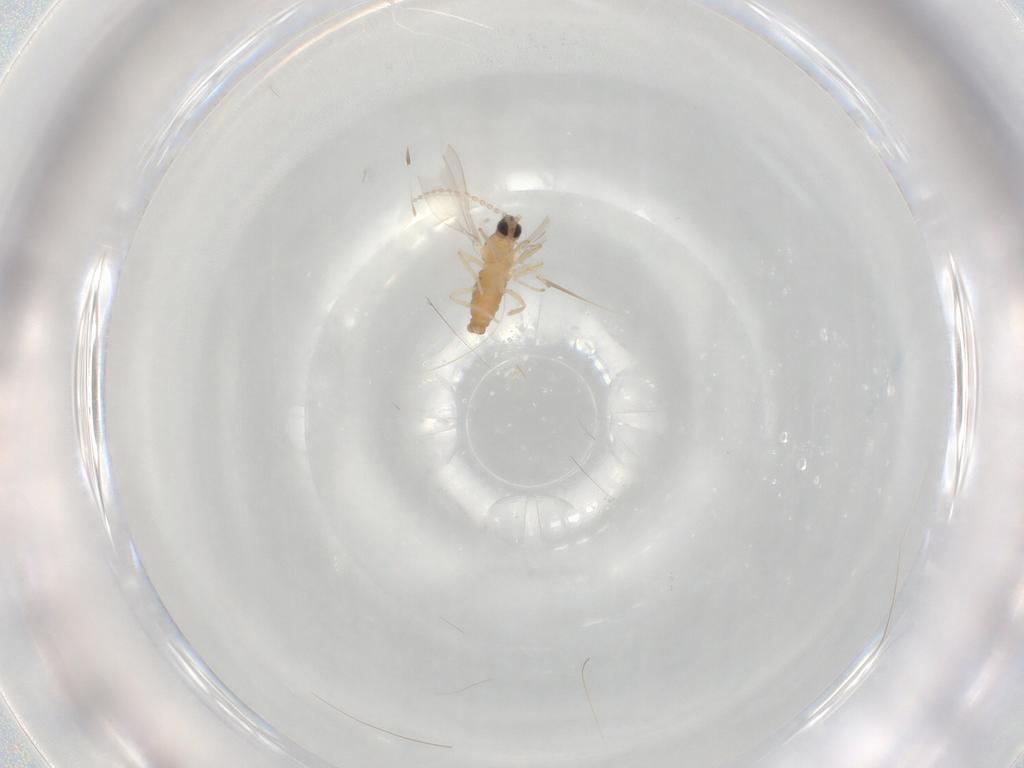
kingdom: Animalia
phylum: Arthropoda
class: Insecta
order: Diptera
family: Cecidomyiidae
